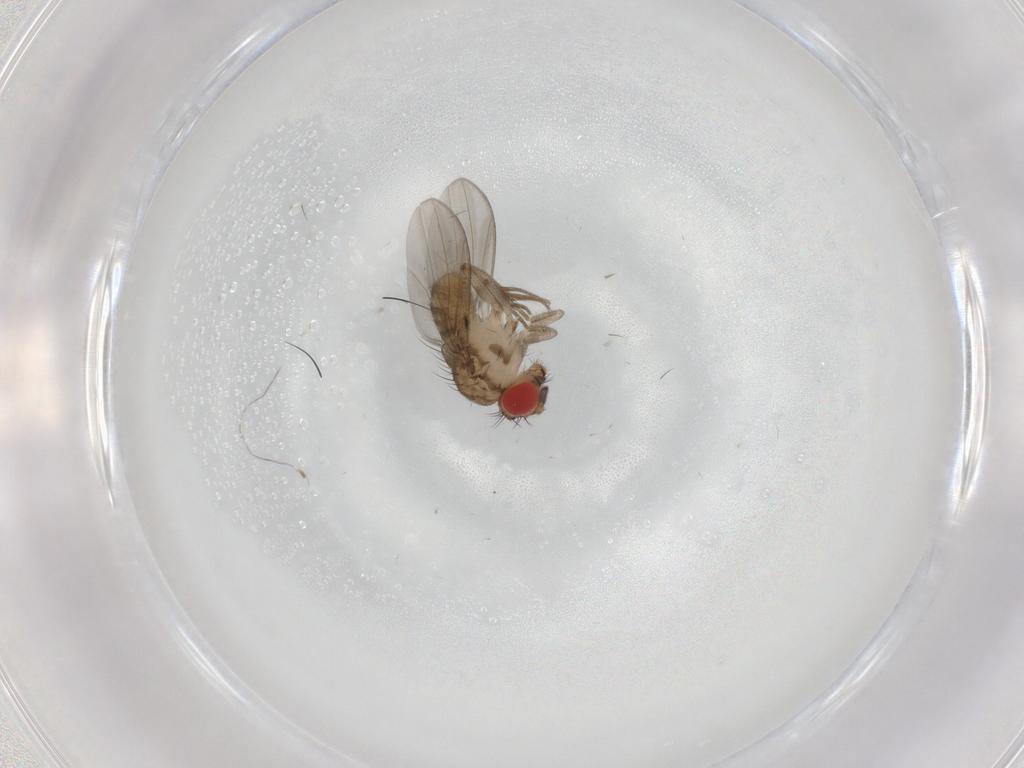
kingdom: Animalia
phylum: Arthropoda
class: Insecta
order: Diptera
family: Drosophilidae
